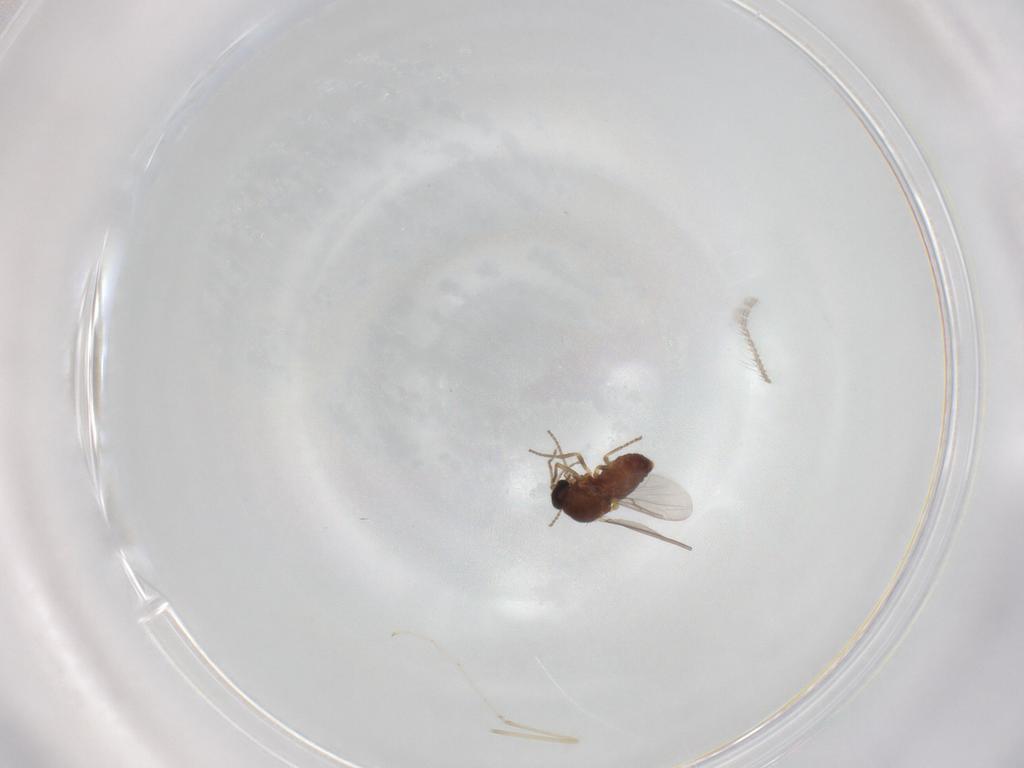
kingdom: Animalia
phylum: Arthropoda
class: Insecta
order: Diptera
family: Ceratopogonidae
